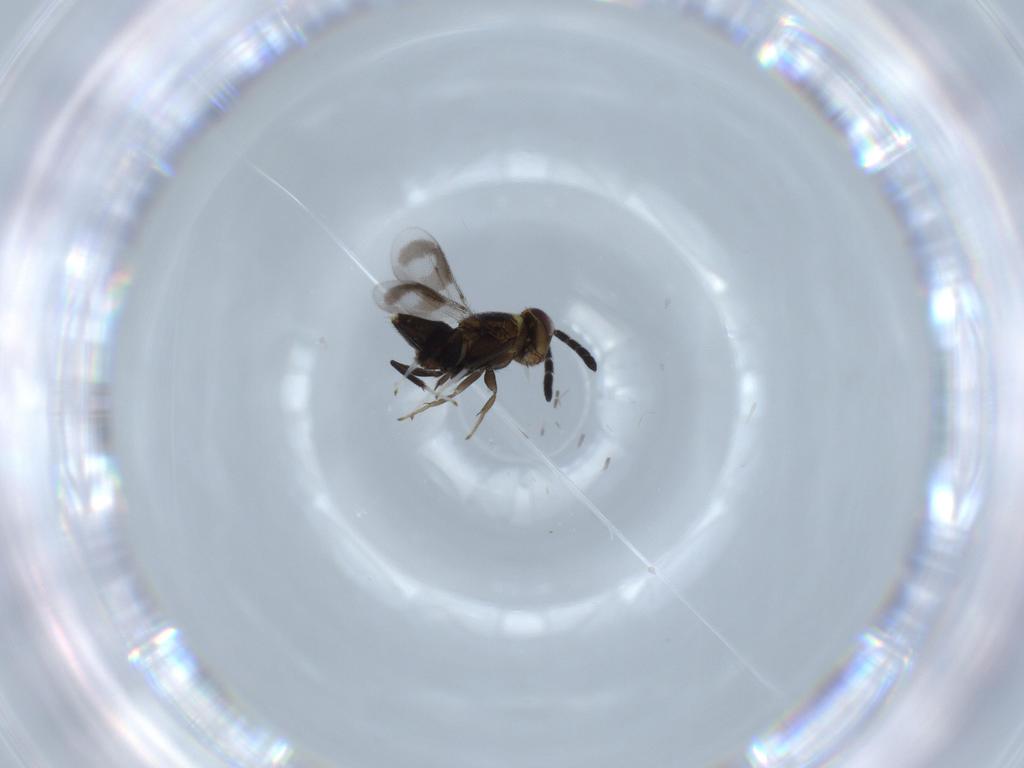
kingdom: Animalia
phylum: Arthropoda
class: Insecta
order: Hymenoptera
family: Aphelinidae
